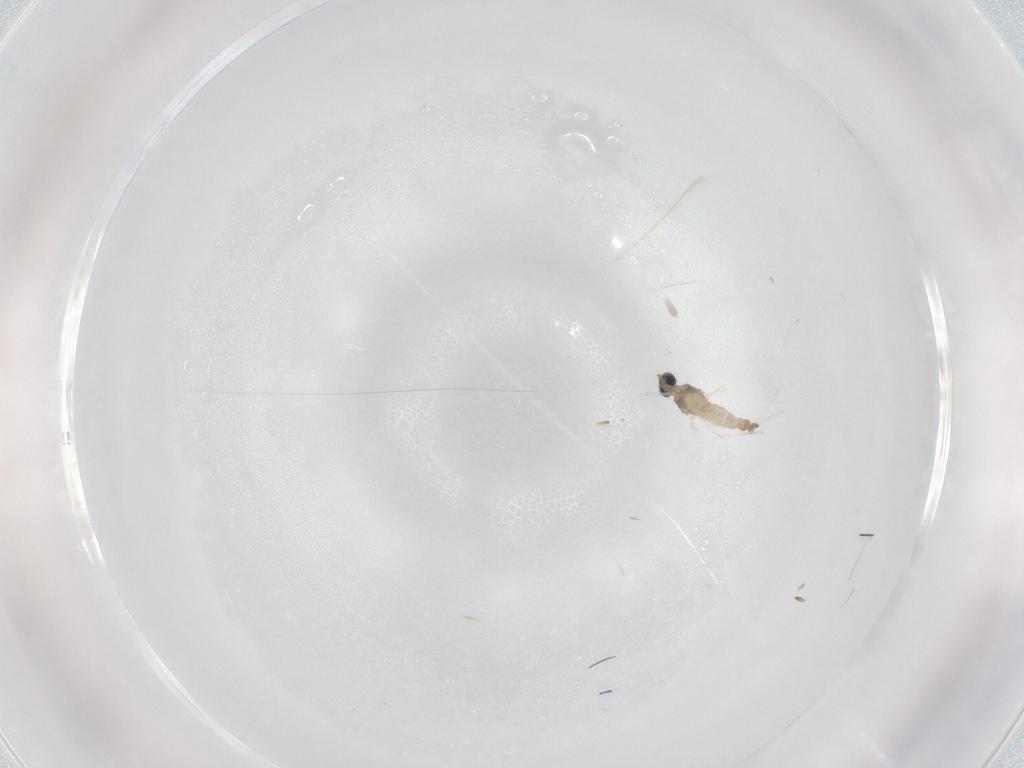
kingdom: Animalia
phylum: Arthropoda
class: Insecta
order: Diptera
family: Cecidomyiidae
